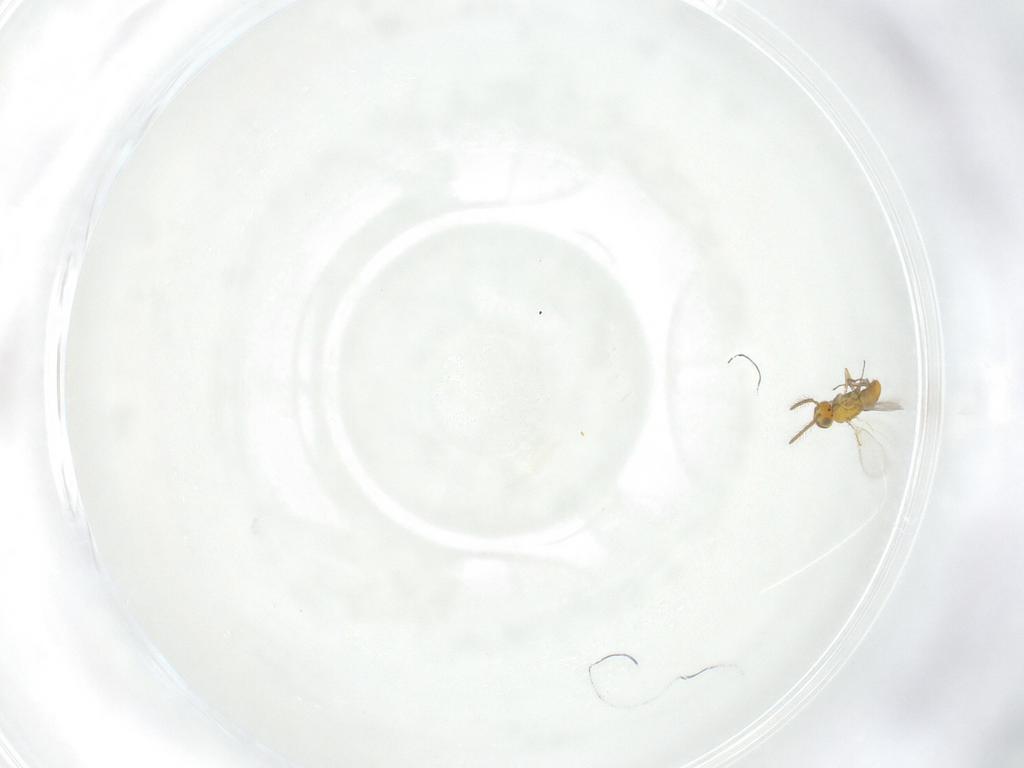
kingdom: Animalia
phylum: Arthropoda
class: Insecta
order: Hymenoptera
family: Aphelinidae
